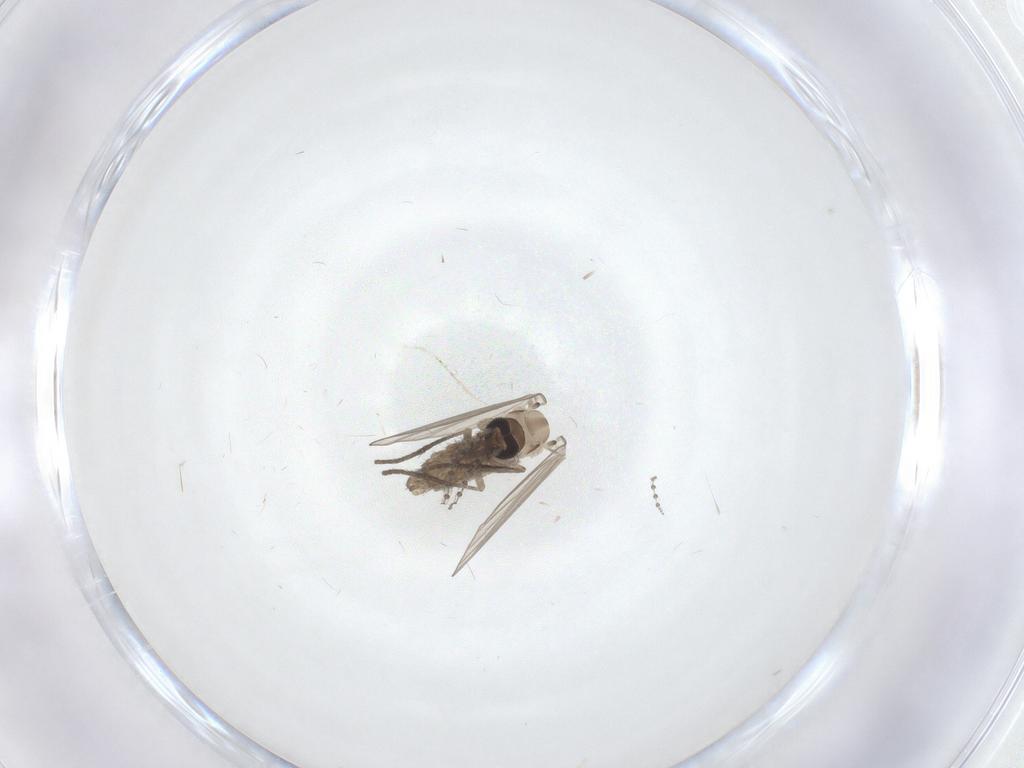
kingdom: Animalia
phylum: Arthropoda
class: Insecta
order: Diptera
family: Psychodidae
